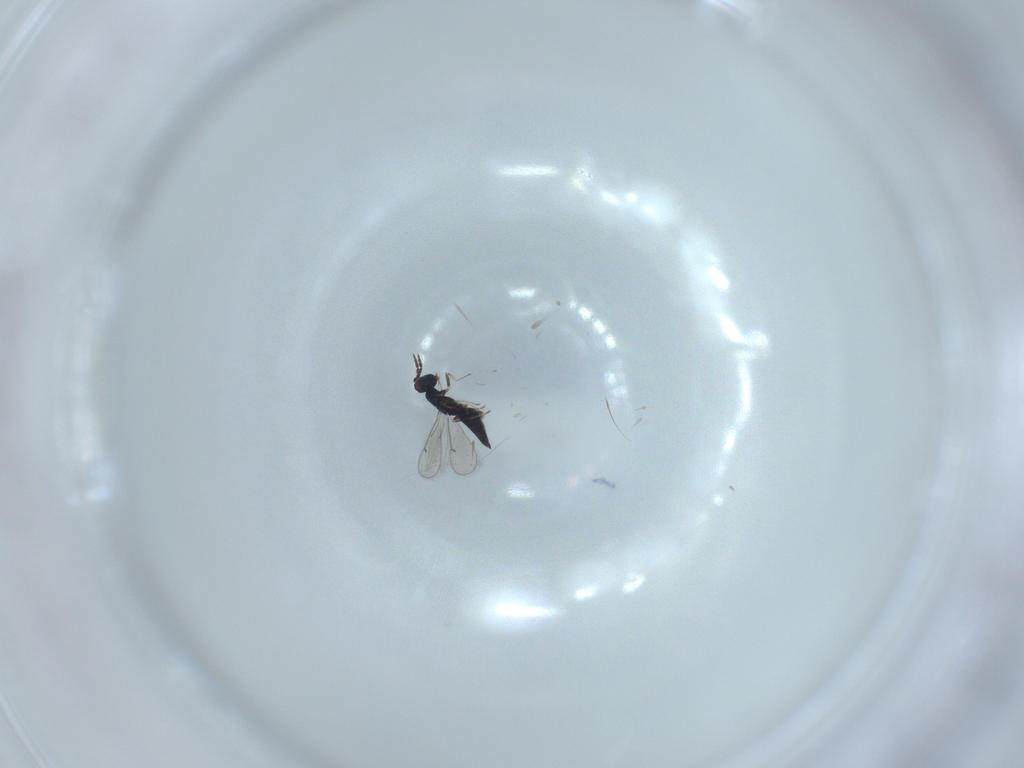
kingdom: Animalia
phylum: Arthropoda
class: Insecta
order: Hymenoptera
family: Eulophidae
